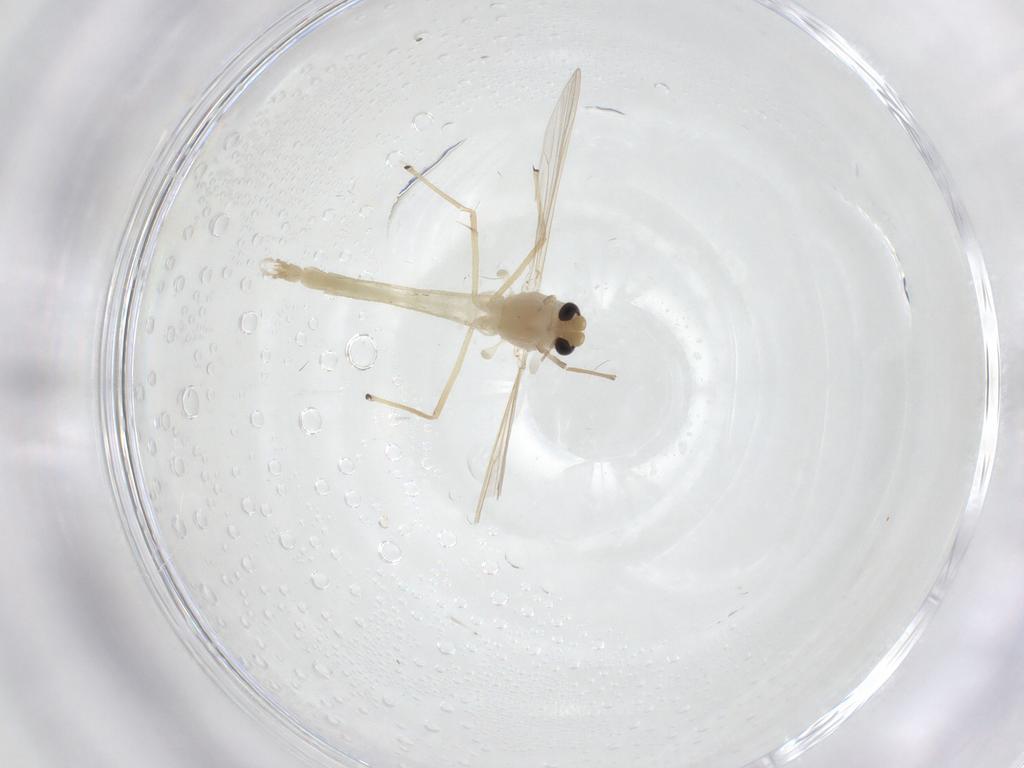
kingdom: Animalia
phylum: Arthropoda
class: Insecta
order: Diptera
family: Chironomidae
